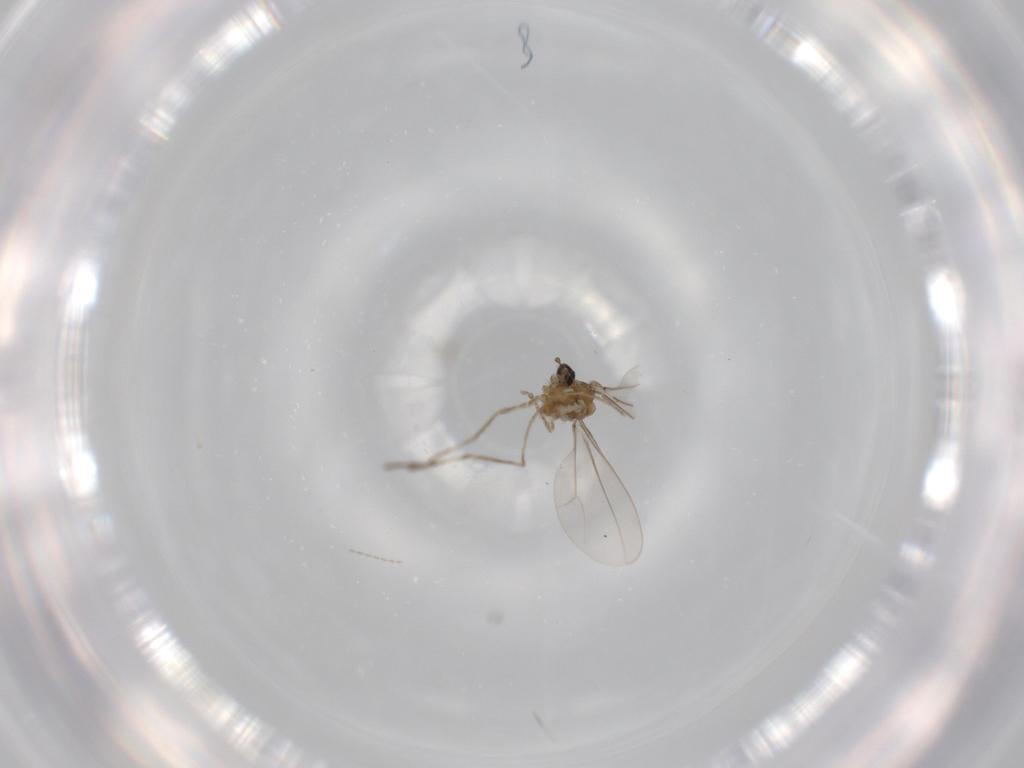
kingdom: Animalia
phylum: Arthropoda
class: Insecta
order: Diptera
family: Cecidomyiidae
